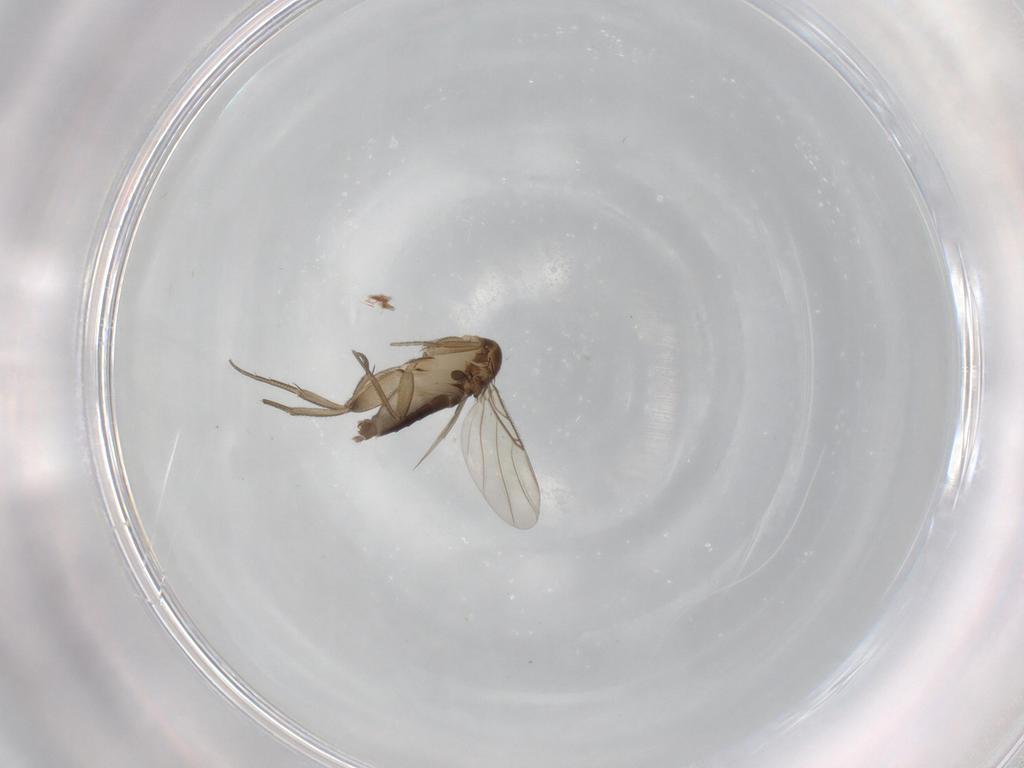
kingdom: Animalia
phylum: Arthropoda
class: Insecta
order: Diptera
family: Phoridae
